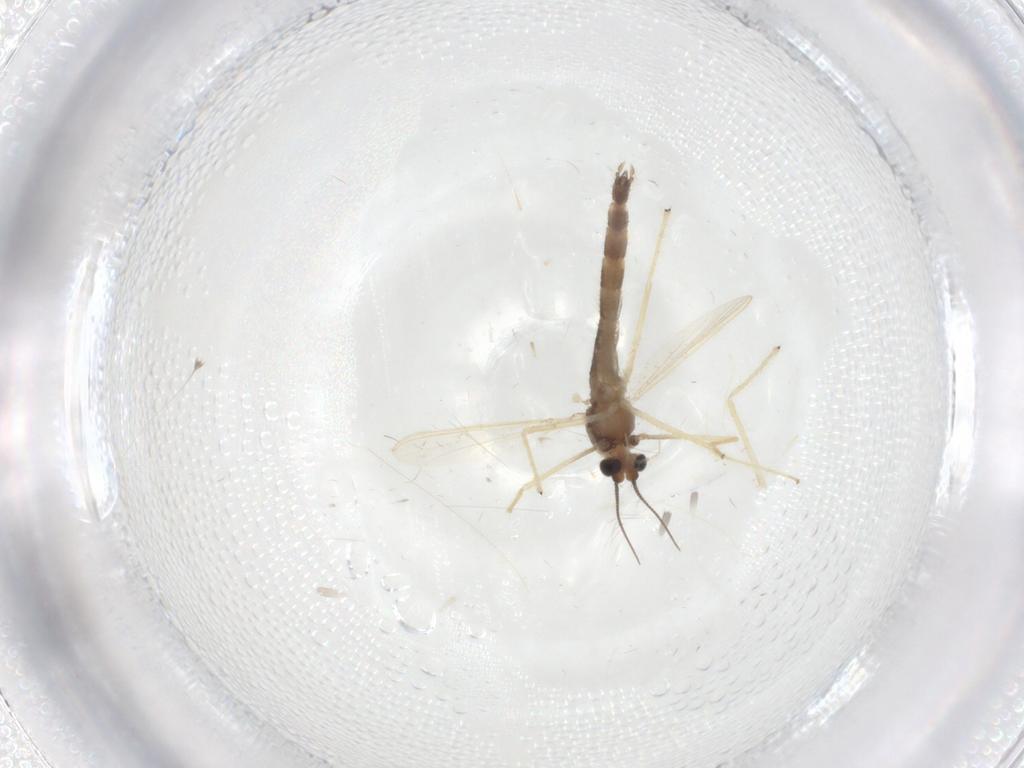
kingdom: Animalia
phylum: Arthropoda
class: Insecta
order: Diptera
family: Chironomidae
